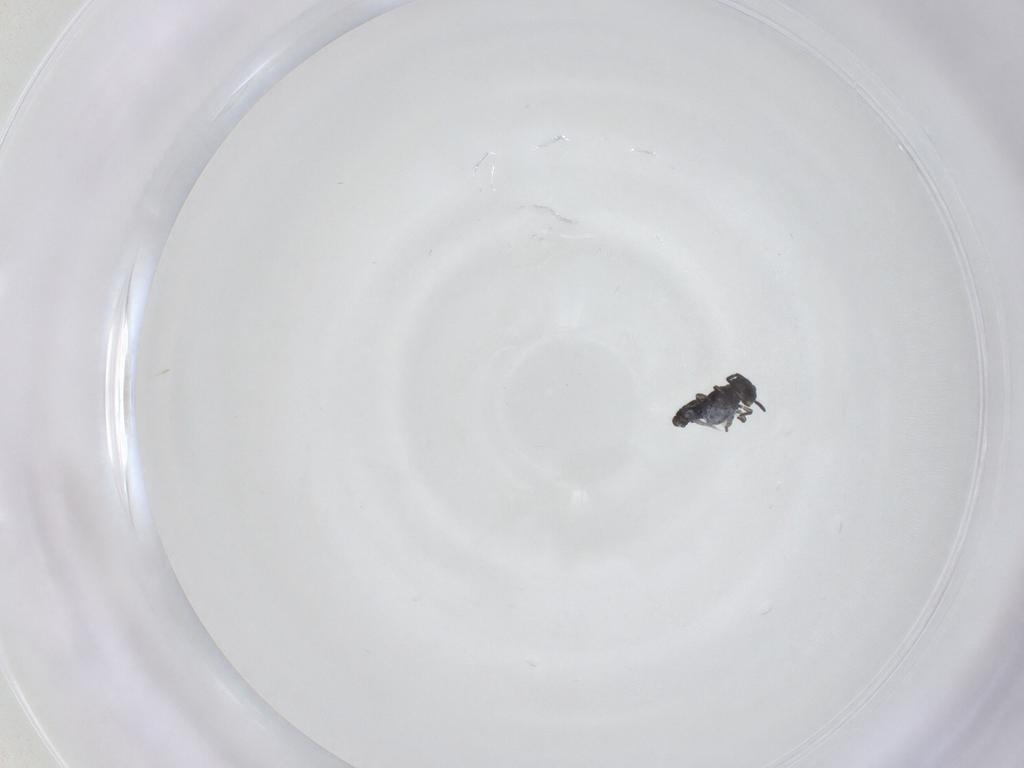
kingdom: Animalia
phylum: Arthropoda
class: Collembola
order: Symphypleona
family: Katiannidae
